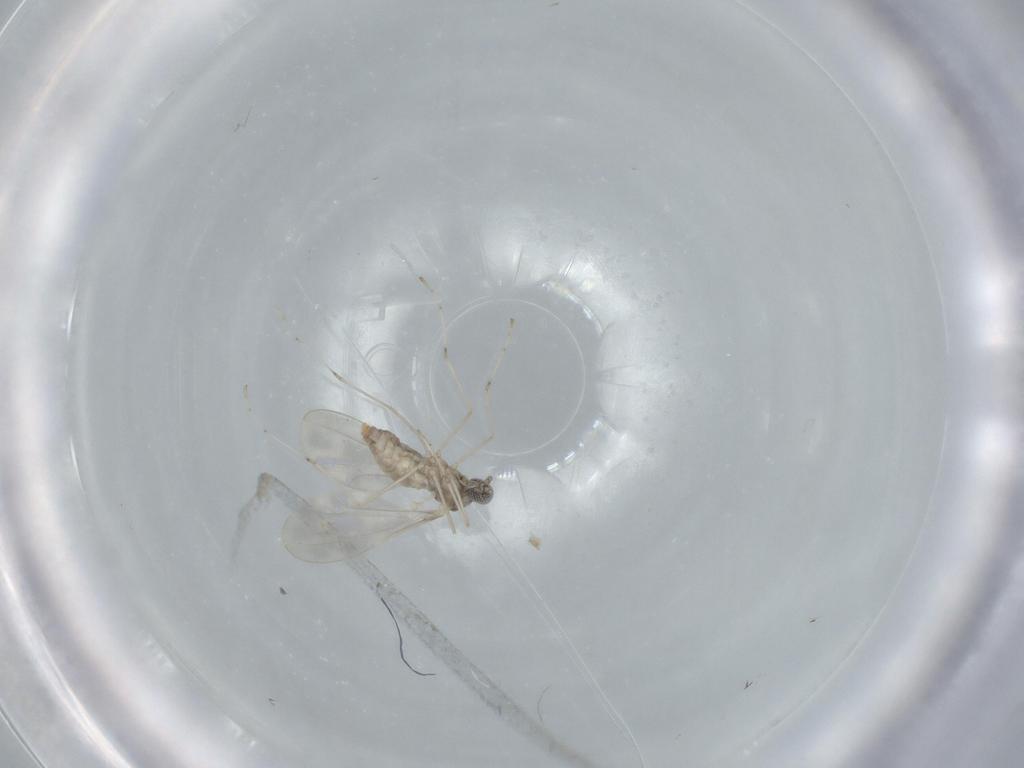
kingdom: Animalia
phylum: Arthropoda
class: Insecta
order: Diptera
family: Cecidomyiidae
